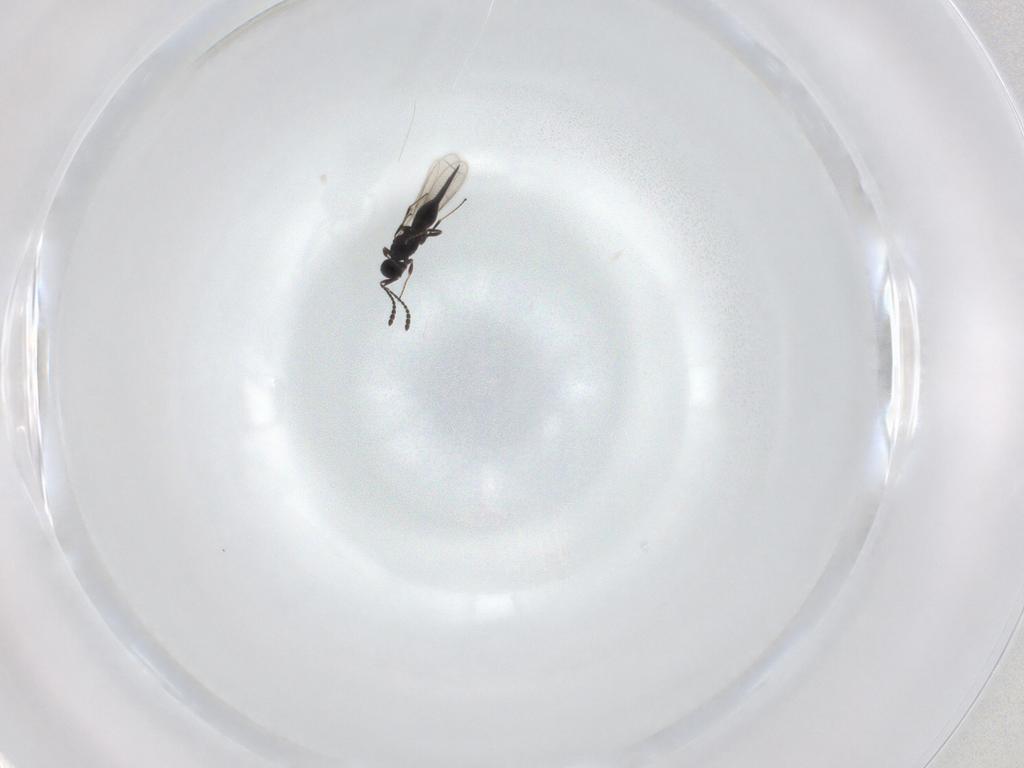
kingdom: Animalia
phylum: Arthropoda
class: Insecta
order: Hymenoptera
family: Scelionidae
